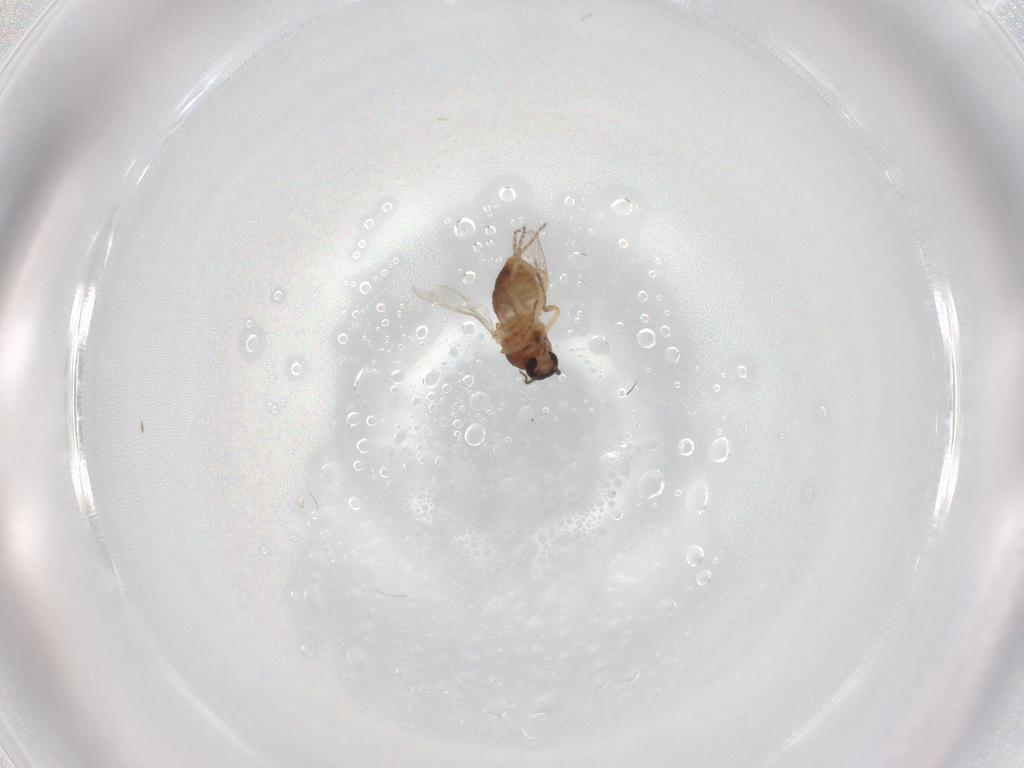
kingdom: Animalia
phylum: Arthropoda
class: Insecta
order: Diptera
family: Ceratopogonidae
